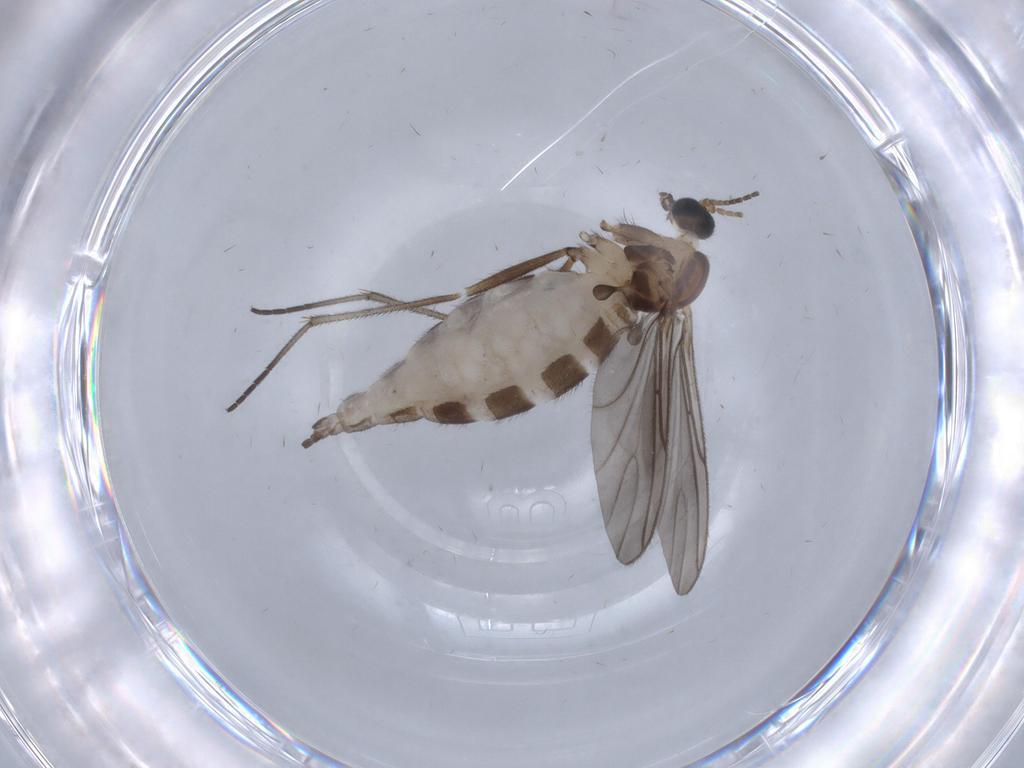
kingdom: Animalia
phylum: Arthropoda
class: Insecta
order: Diptera
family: Sciaridae
